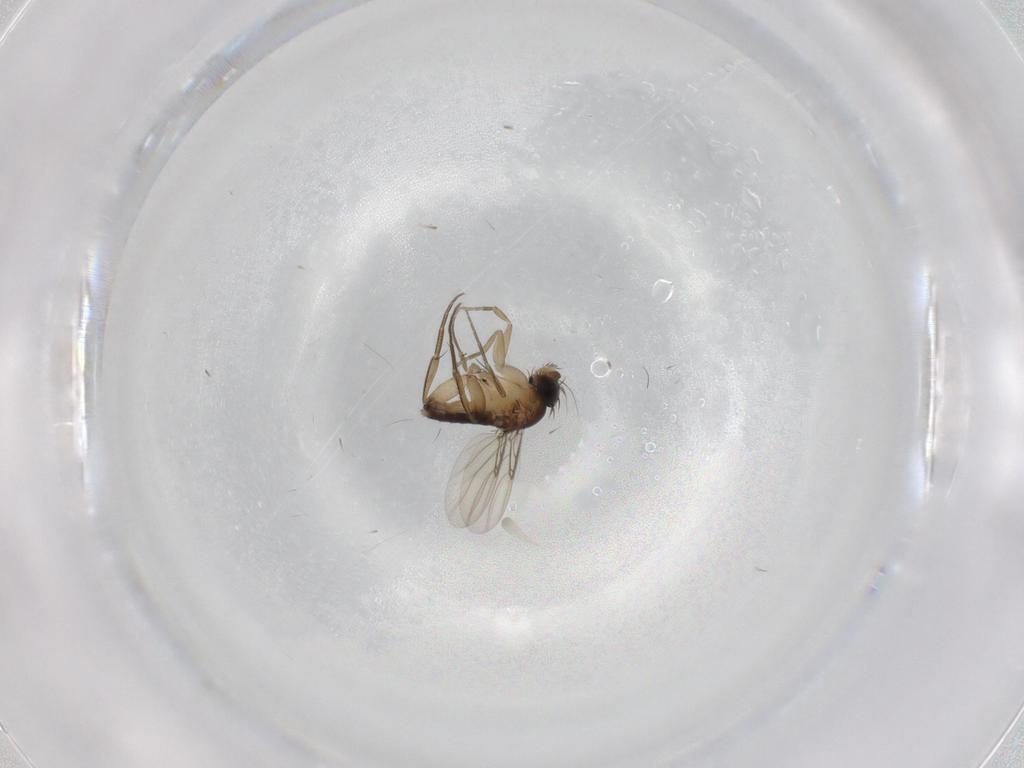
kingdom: Animalia
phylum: Arthropoda
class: Insecta
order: Diptera
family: Phoridae
